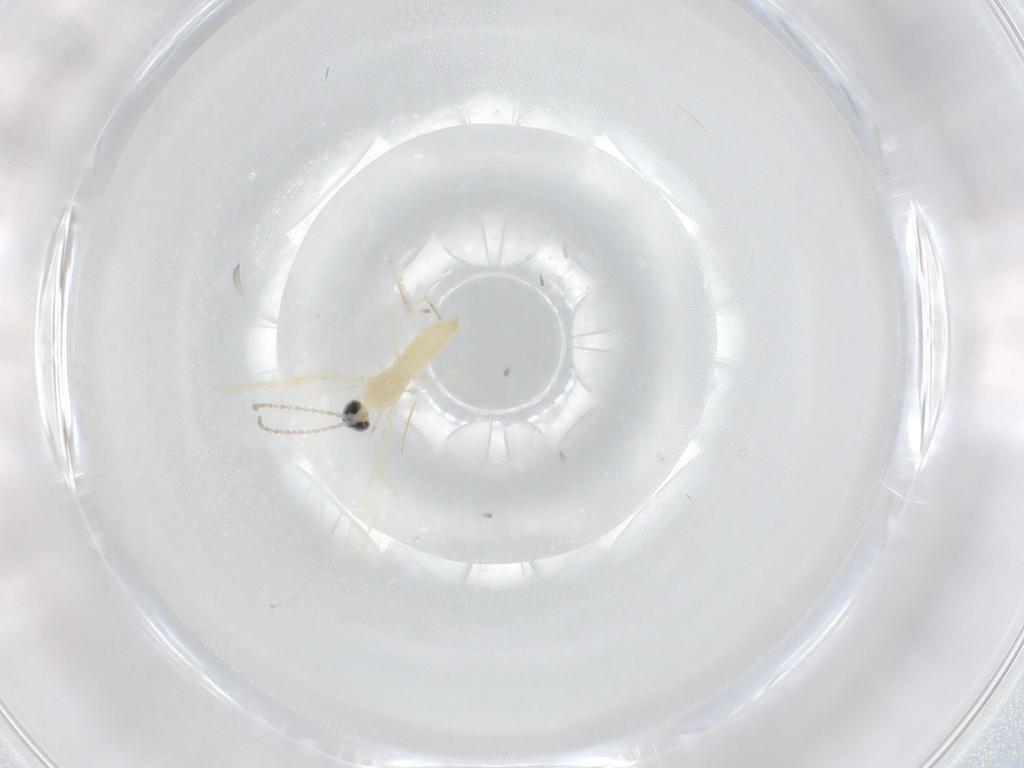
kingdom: Animalia
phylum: Arthropoda
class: Insecta
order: Diptera
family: Cecidomyiidae
